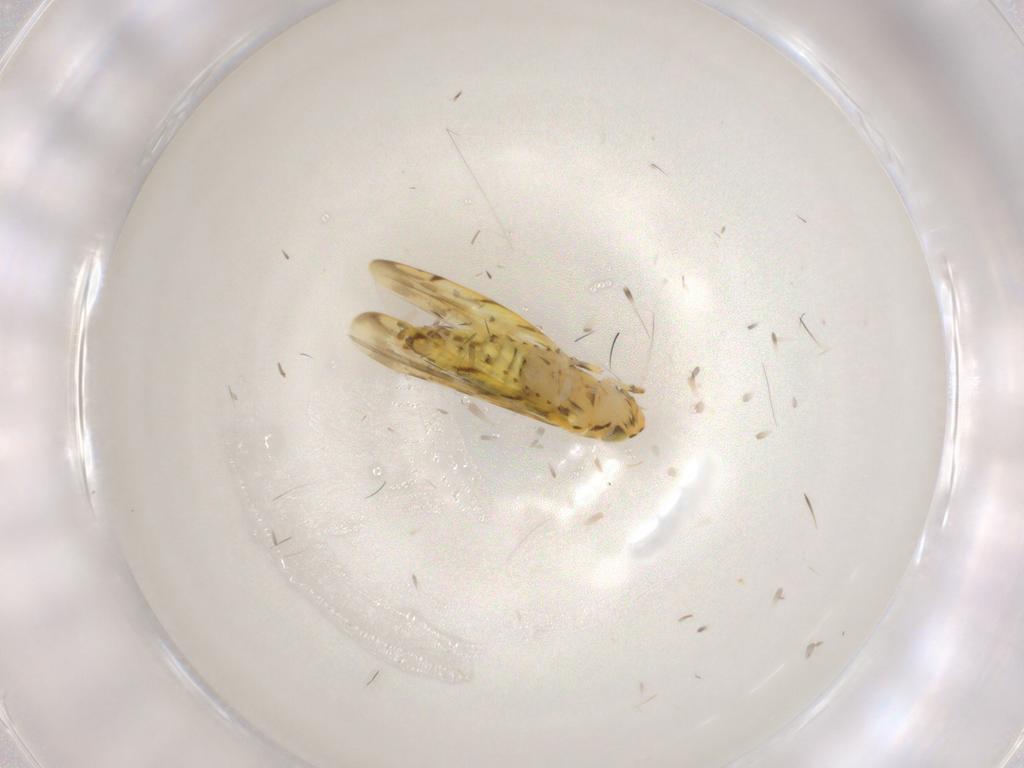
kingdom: Animalia
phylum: Arthropoda
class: Insecta
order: Hemiptera
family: Cicadellidae
